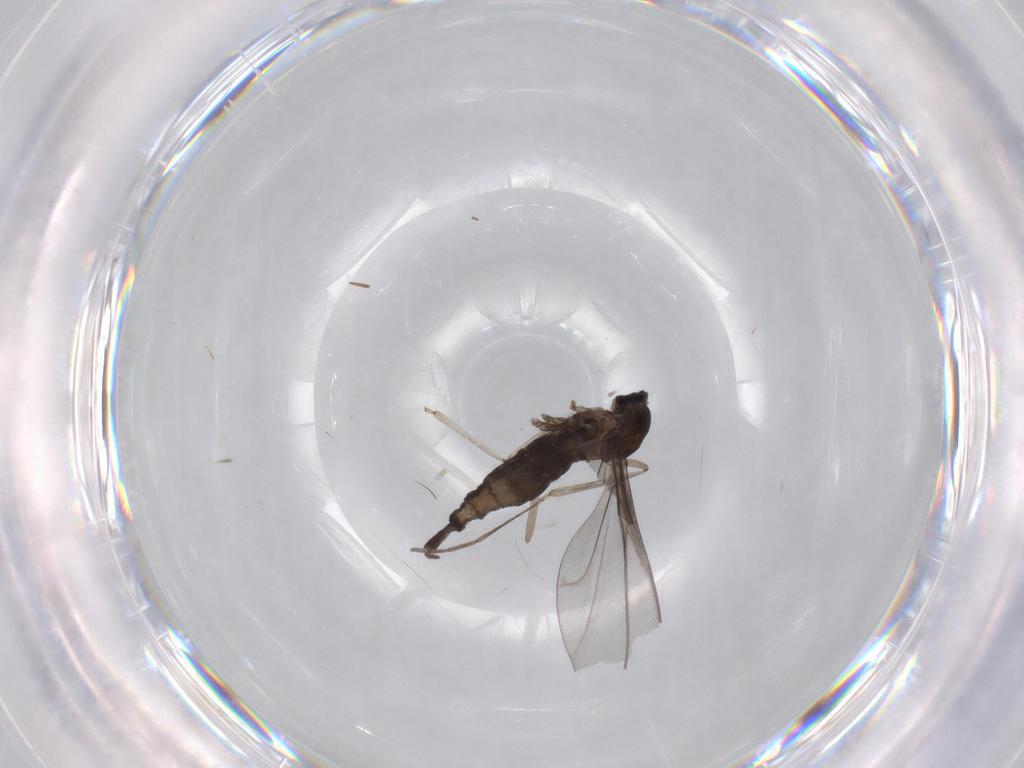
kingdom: Animalia
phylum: Arthropoda
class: Insecta
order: Diptera
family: Cecidomyiidae
